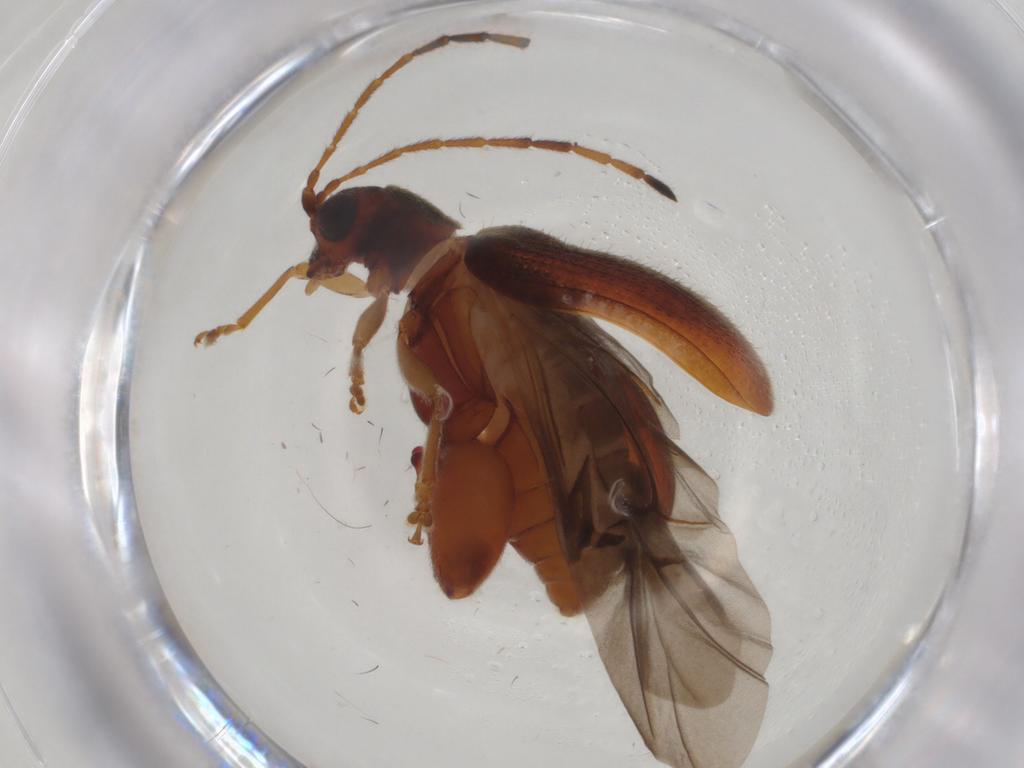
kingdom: Animalia
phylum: Arthropoda
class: Insecta
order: Coleoptera
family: Chrysomelidae
